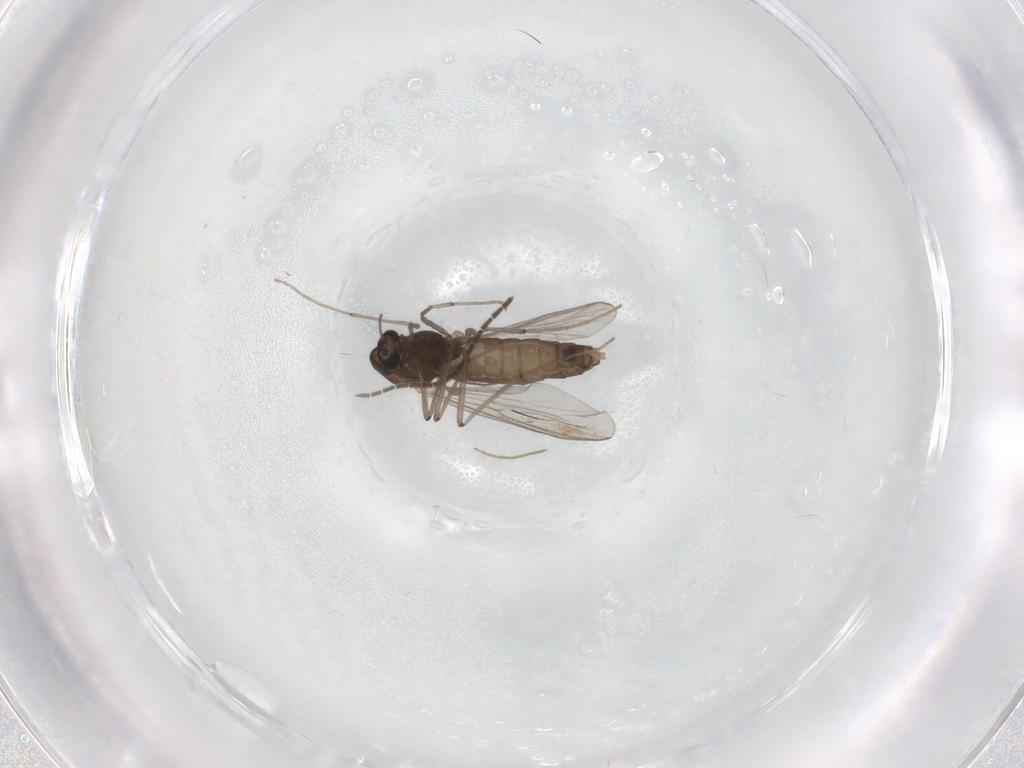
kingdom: Animalia
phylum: Arthropoda
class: Insecta
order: Diptera
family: Chironomidae
